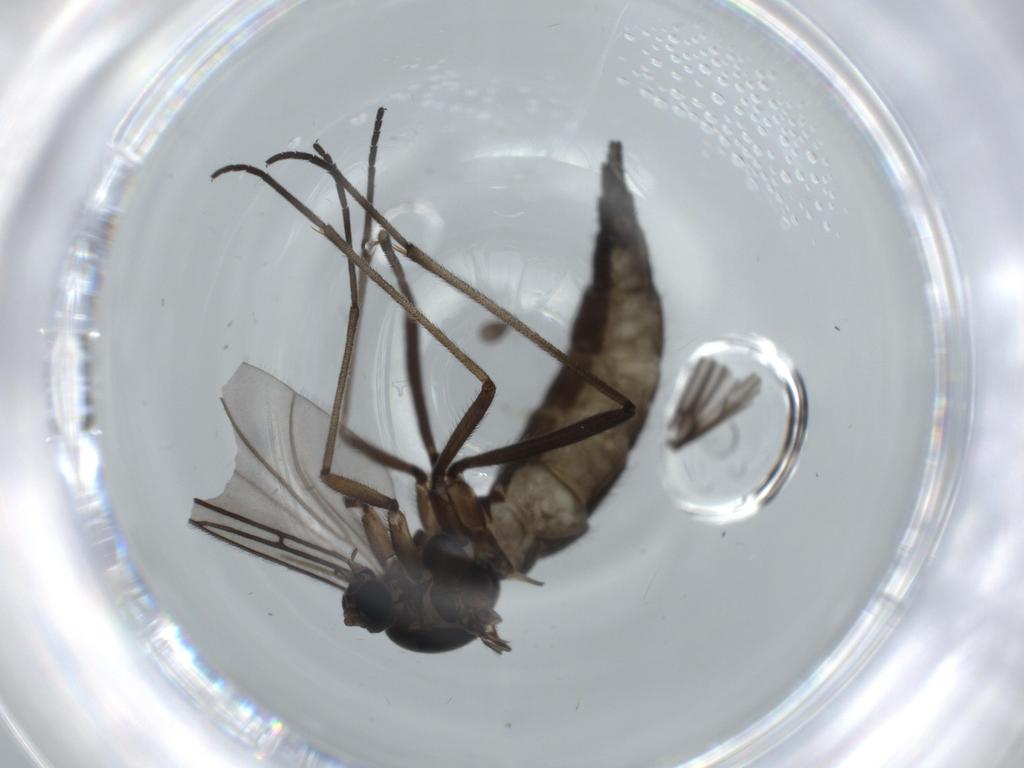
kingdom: Animalia
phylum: Arthropoda
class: Insecta
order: Diptera
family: Sciaridae
